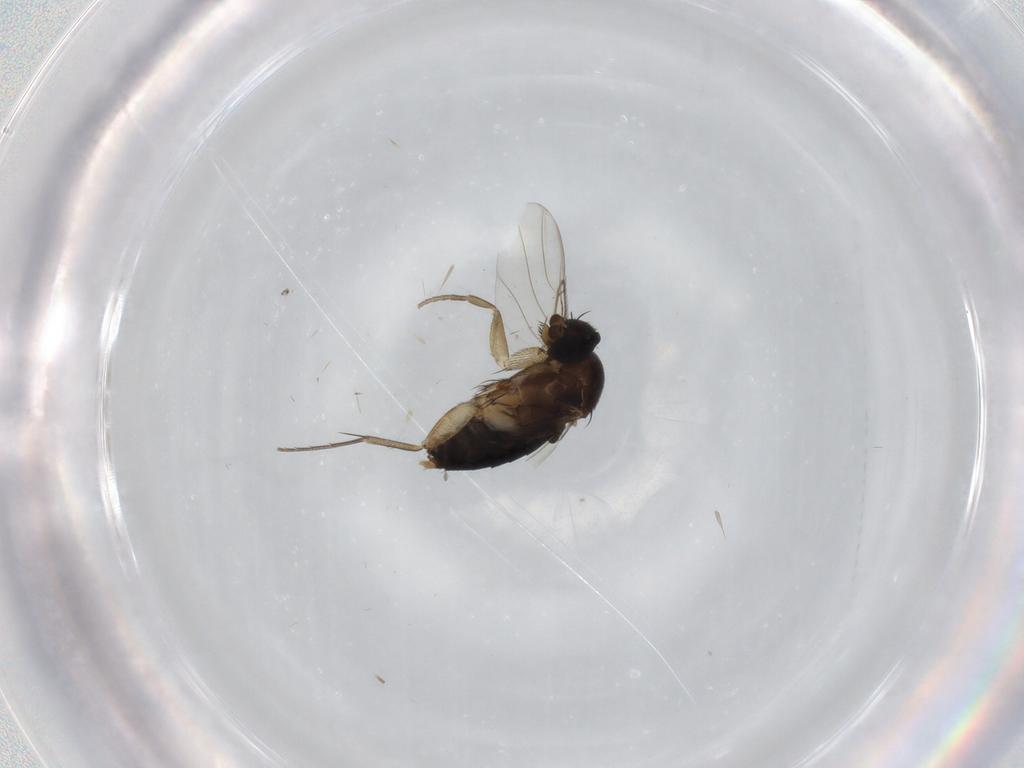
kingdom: Animalia
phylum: Arthropoda
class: Insecta
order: Diptera
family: Phoridae
